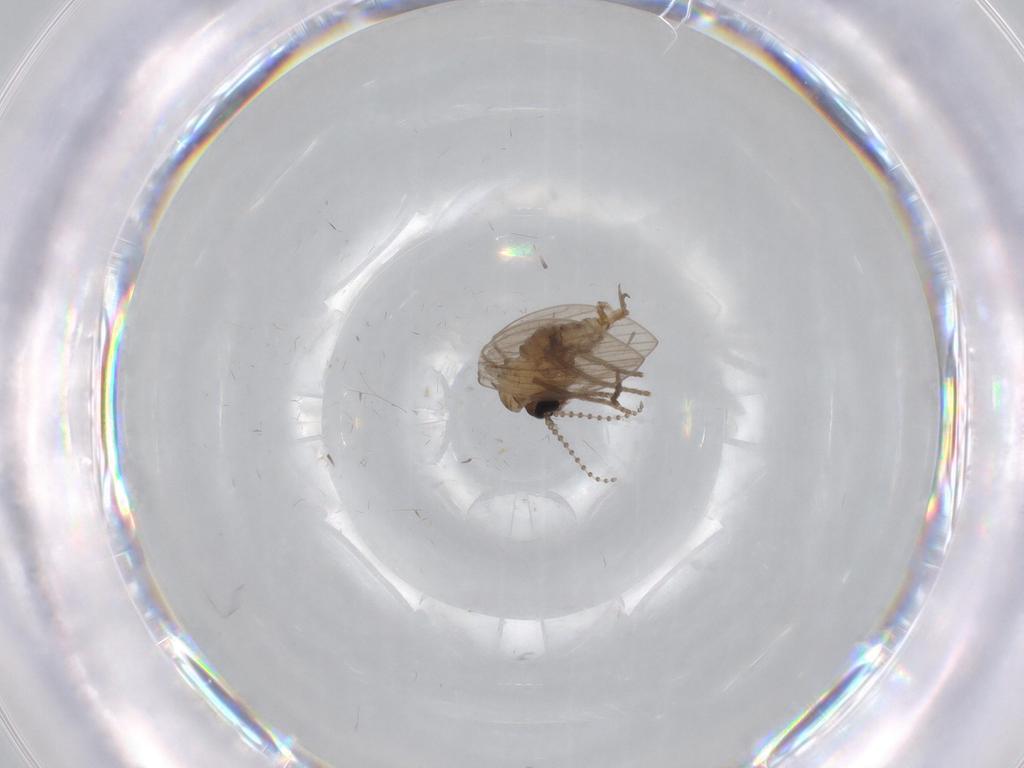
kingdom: Animalia
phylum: Arthropoda
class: Insecta
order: Diptera
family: Psychodidae
